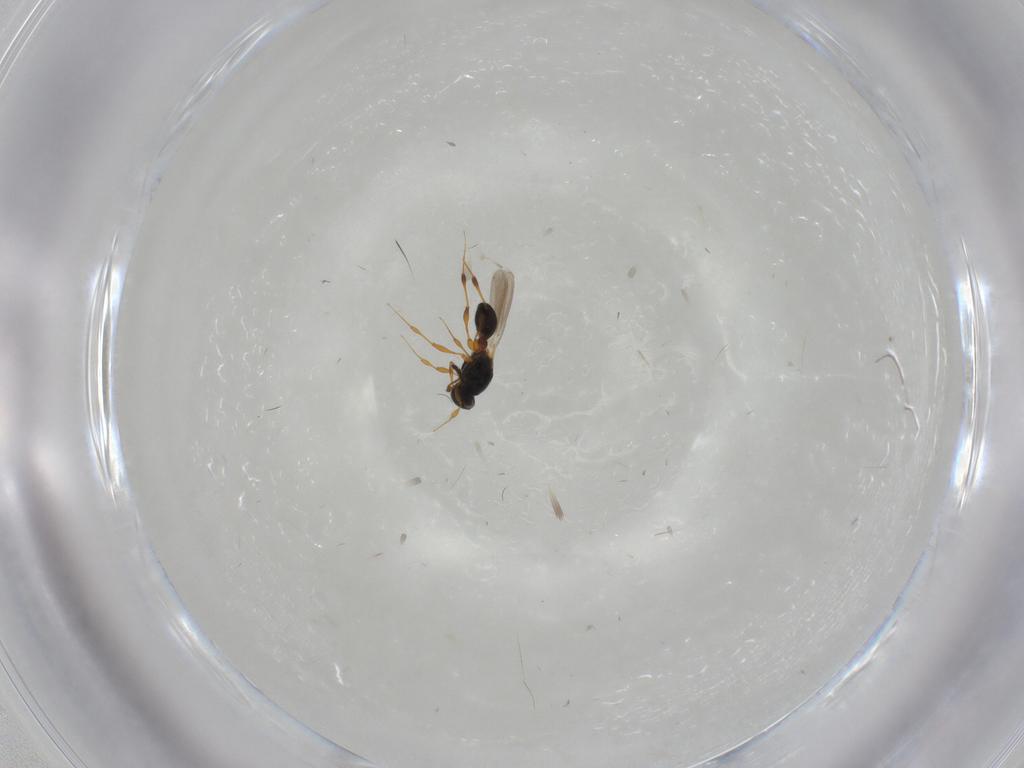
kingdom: Animalia
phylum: Arthropoda
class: Insecta
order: Hymenoptera
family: Platygastridae
